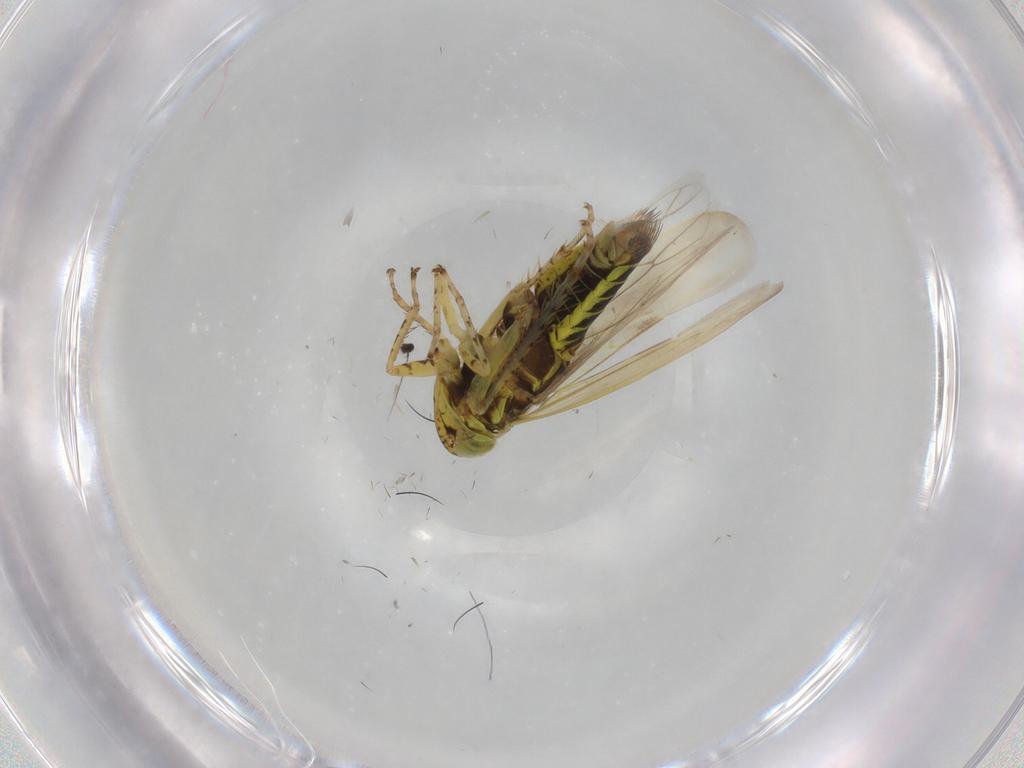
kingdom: Animalia
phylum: Arthropoda
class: Insecta
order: Hemiptera
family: Cicadellidae
